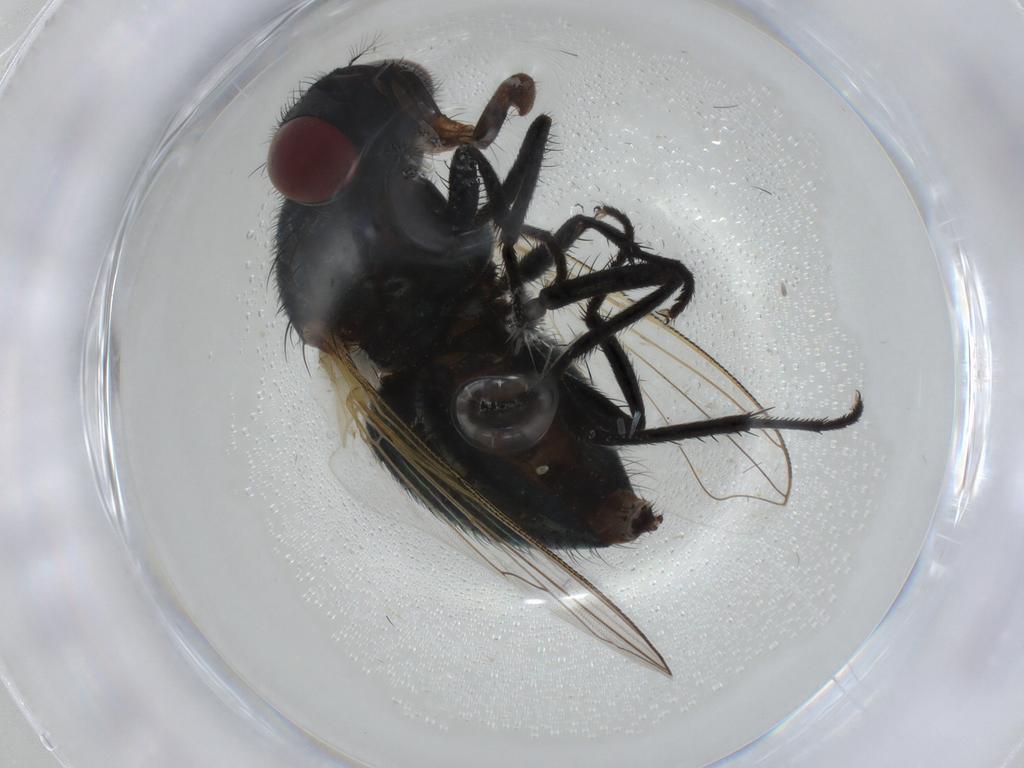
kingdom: Animalia
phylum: Arthropoda
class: Insecta
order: Diptera
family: Muscidae
